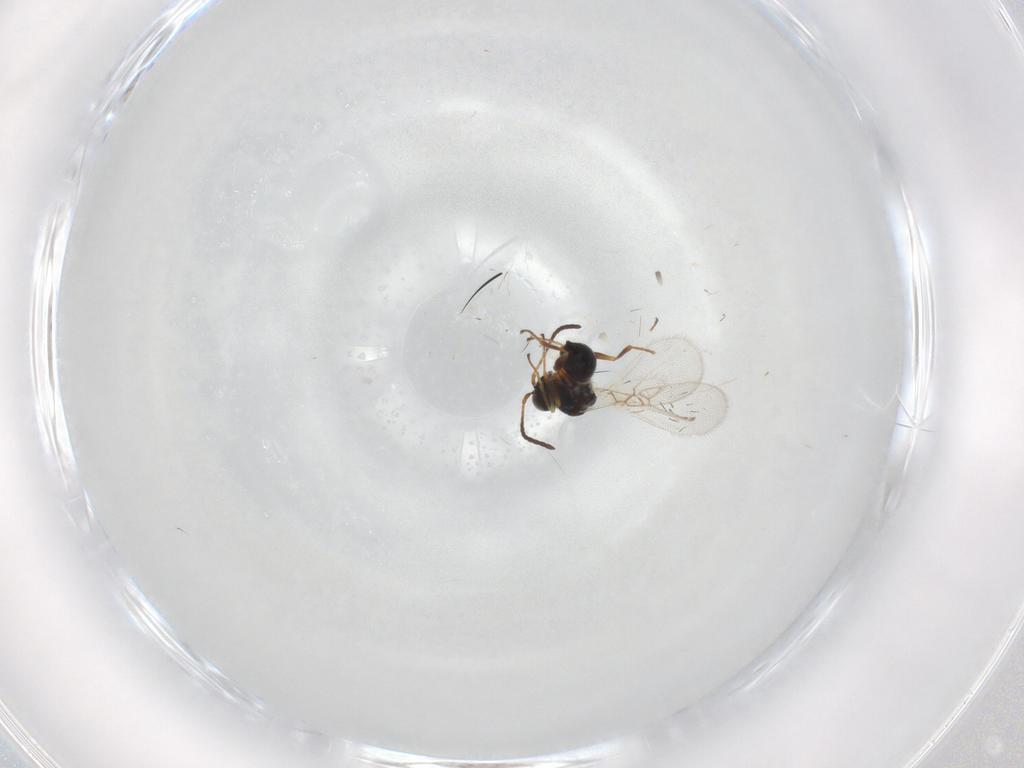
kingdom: Animalia
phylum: Arthropoda
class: Insecta
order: Hymenoptera
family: Figitidae
